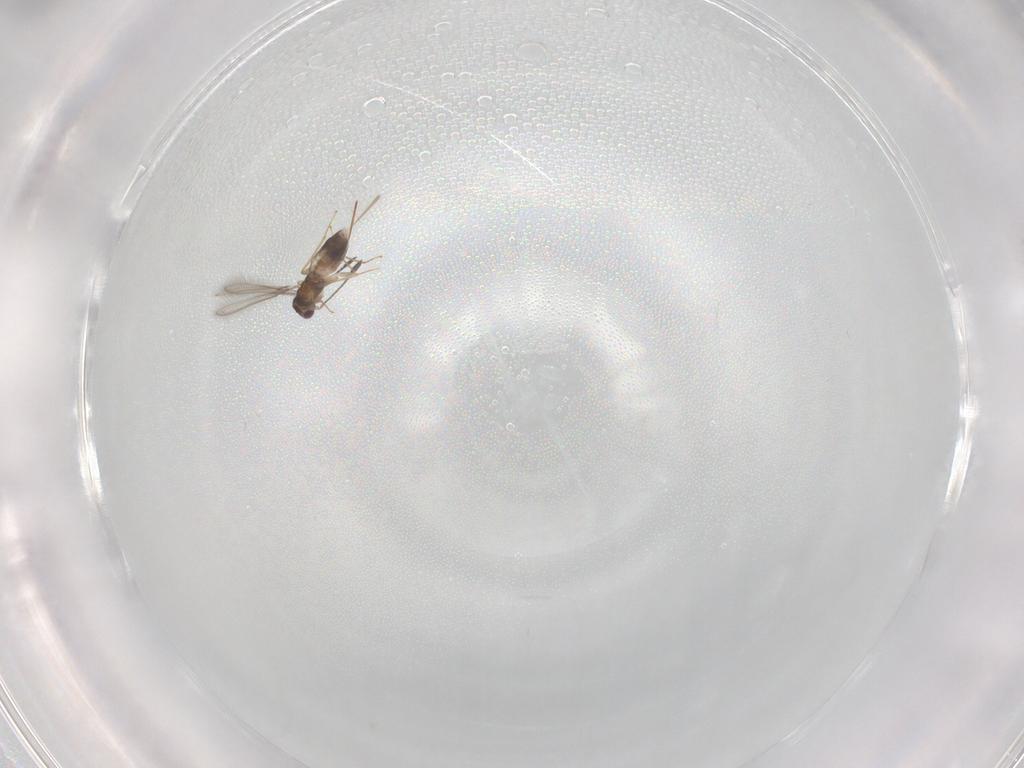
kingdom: Animalia
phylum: Arthropoda
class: Insecta
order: Hymenoptera
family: Mymaridae
